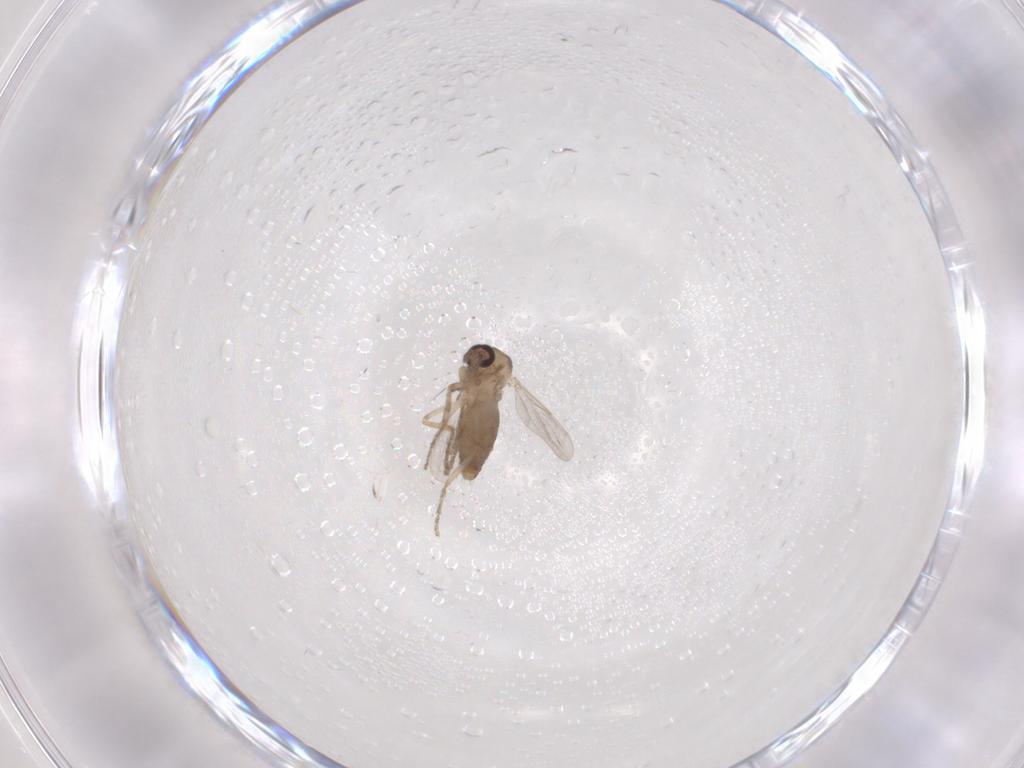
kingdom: Animalia
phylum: Arthropoda
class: Insecta
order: Diptera
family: Ceratopogonidae
